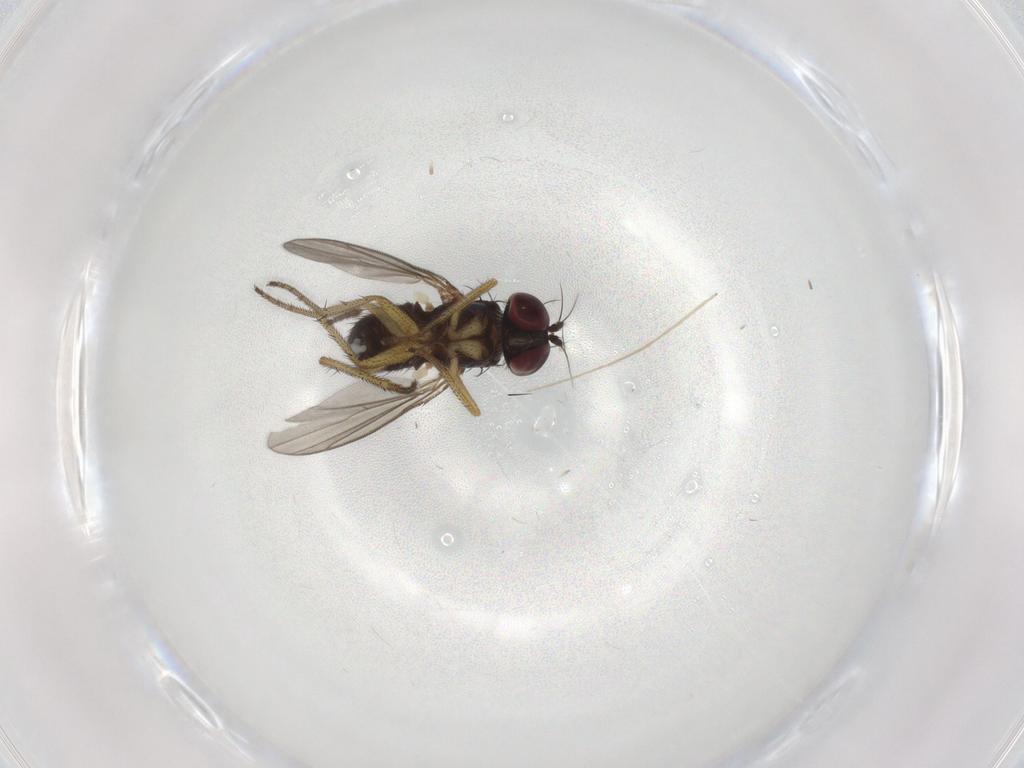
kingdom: Animalia
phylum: Arthropoda
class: Insecta
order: Diptera
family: Chironomidae
